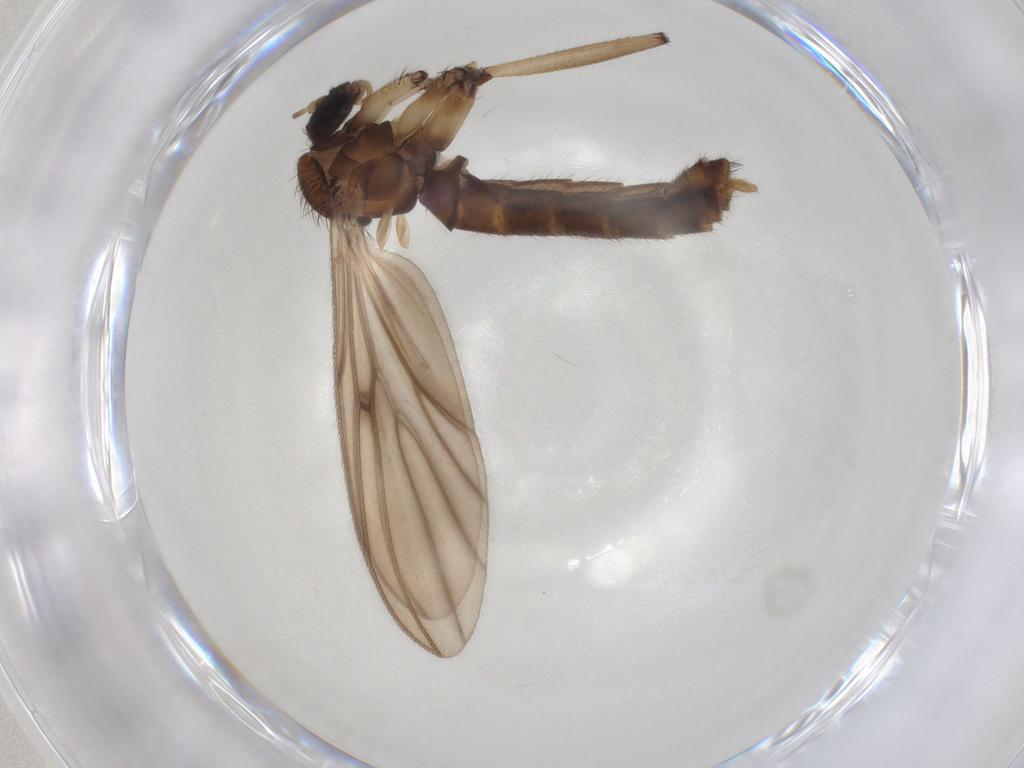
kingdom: Animalia
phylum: Arthropoda
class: Insecta
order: Diptera
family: Mycetophilidae
